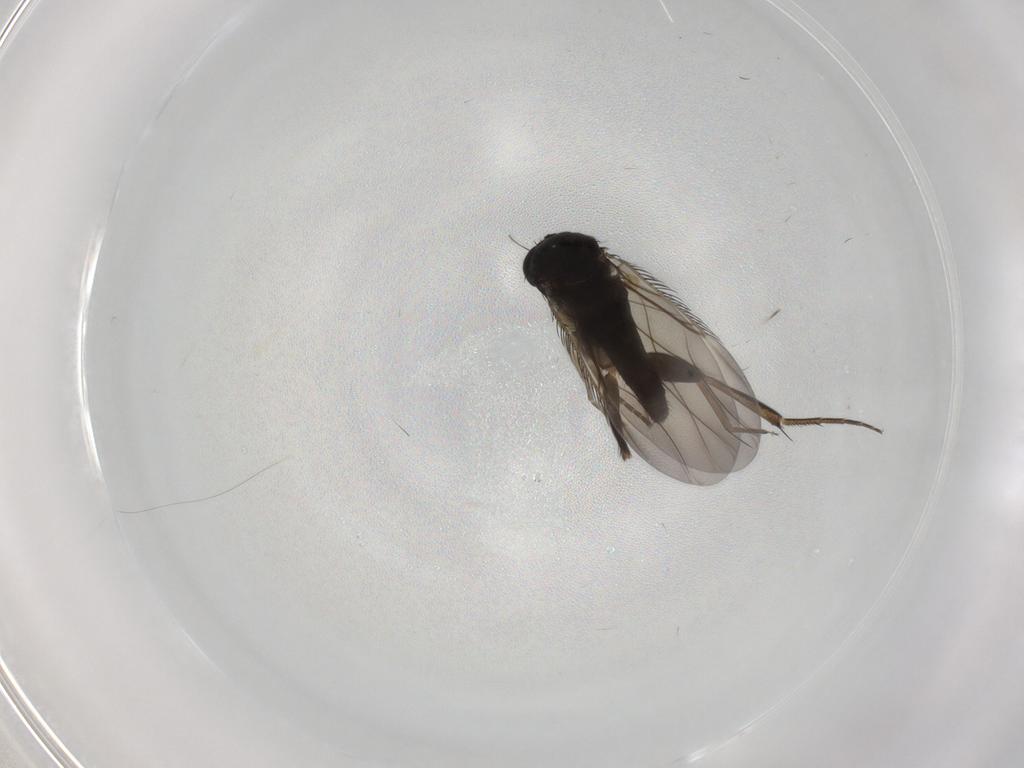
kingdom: Animalia
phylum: Arthropoda
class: Insecta
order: Diptera
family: Phoridae
